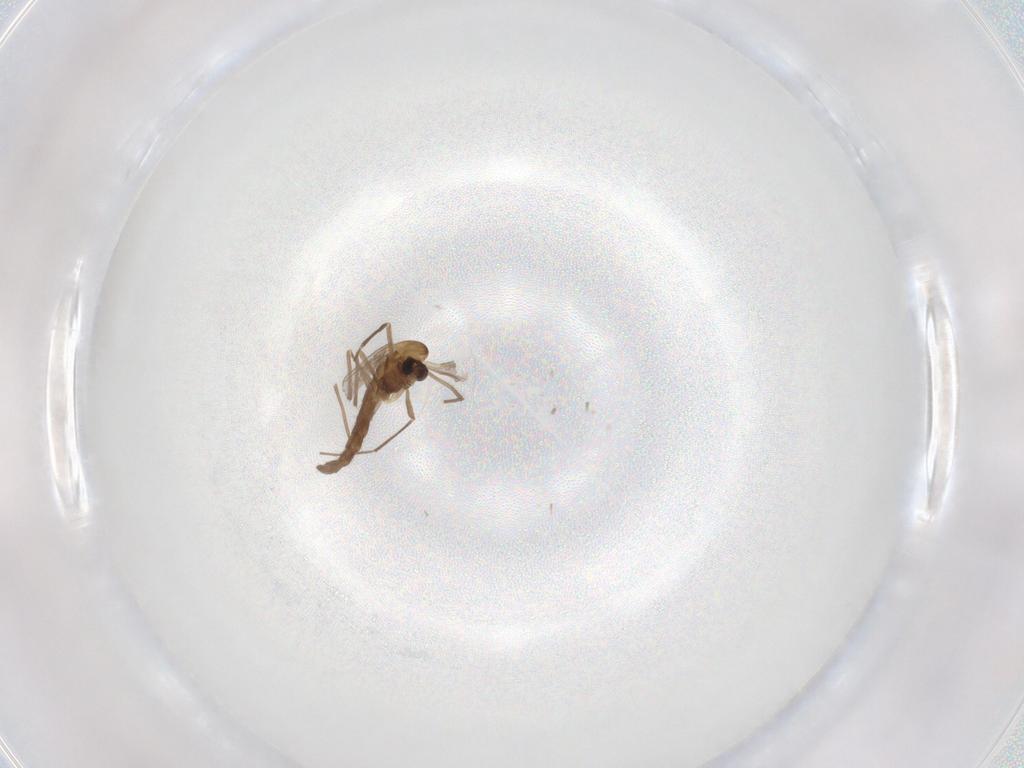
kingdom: Animalia
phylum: Arthropoda
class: Insecta
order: Diptera
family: Chironomidae
